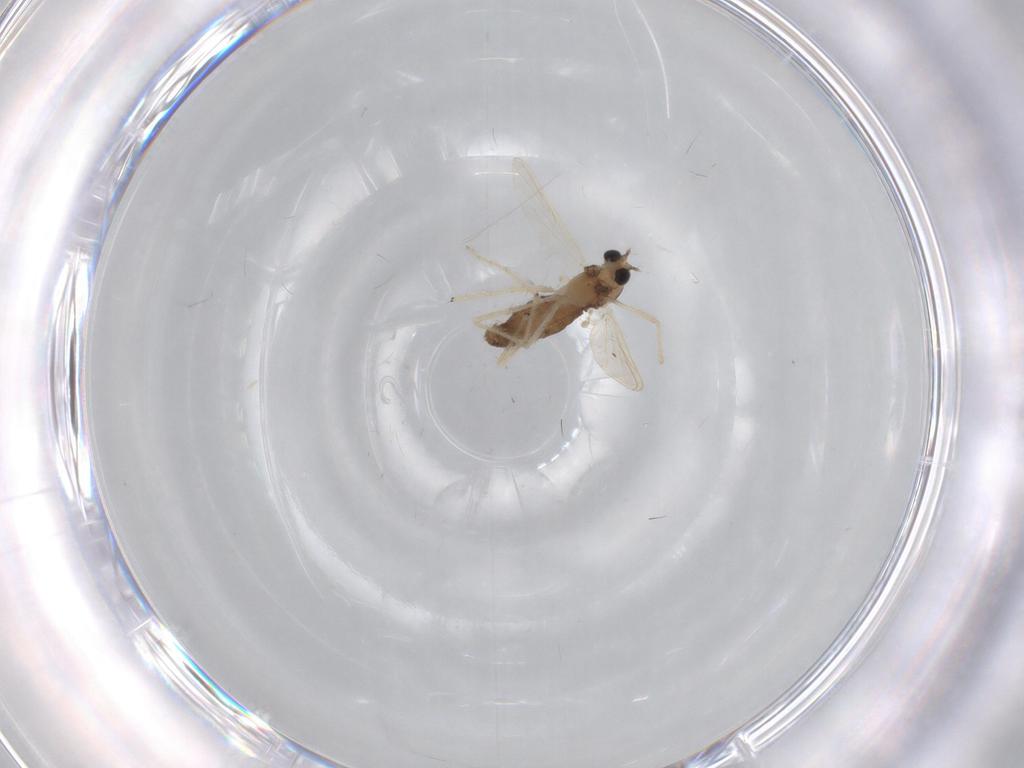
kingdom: Animalia
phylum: Arthropoda
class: Insecta
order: Diptera
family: Chironomidae
